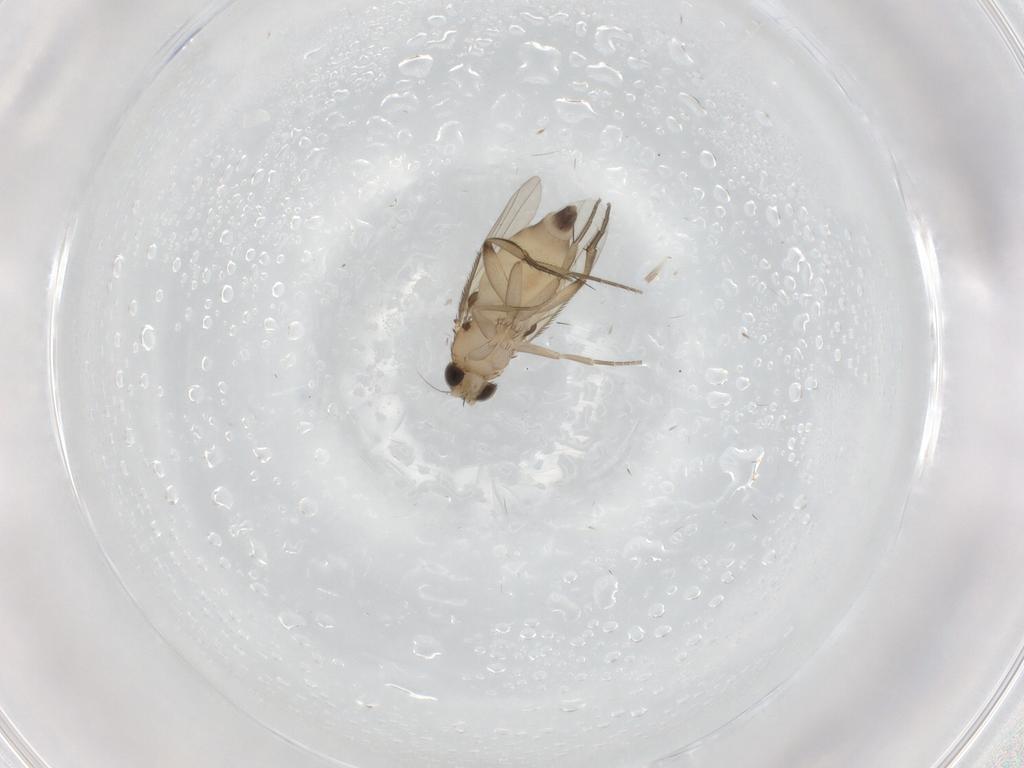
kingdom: Animalia
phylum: Arthropoda
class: Insecta
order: Diptera
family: Phoridae
